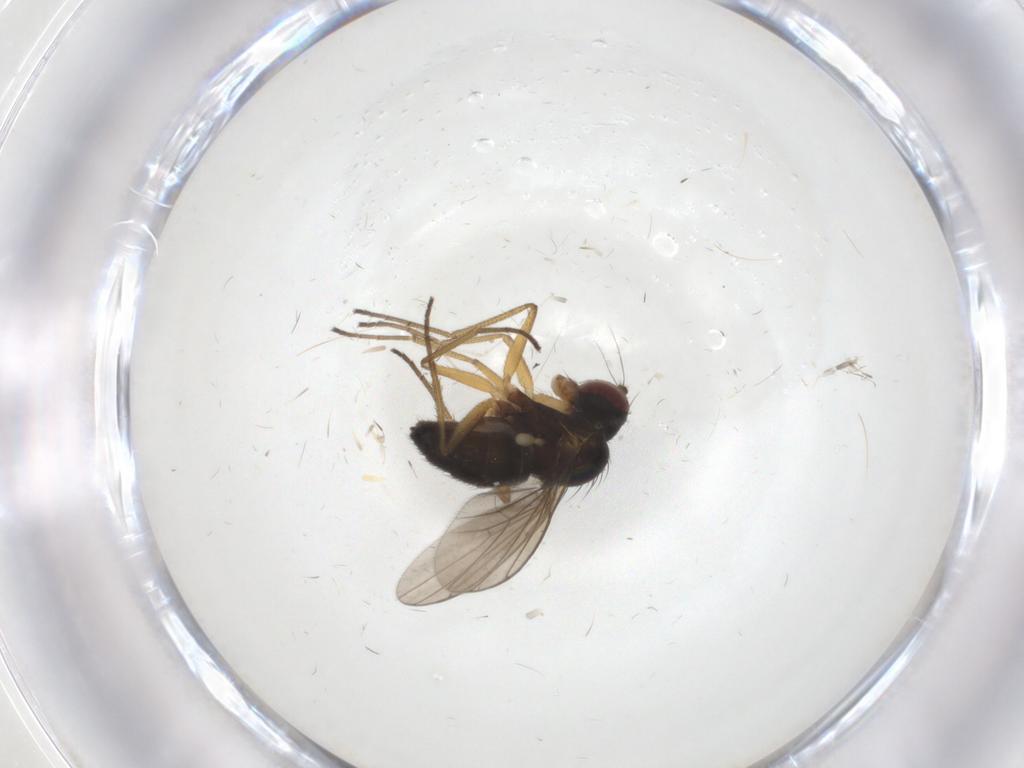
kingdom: Animalia
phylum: Arthropoda
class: Insecta
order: Diptera
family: Dolichopodidae
